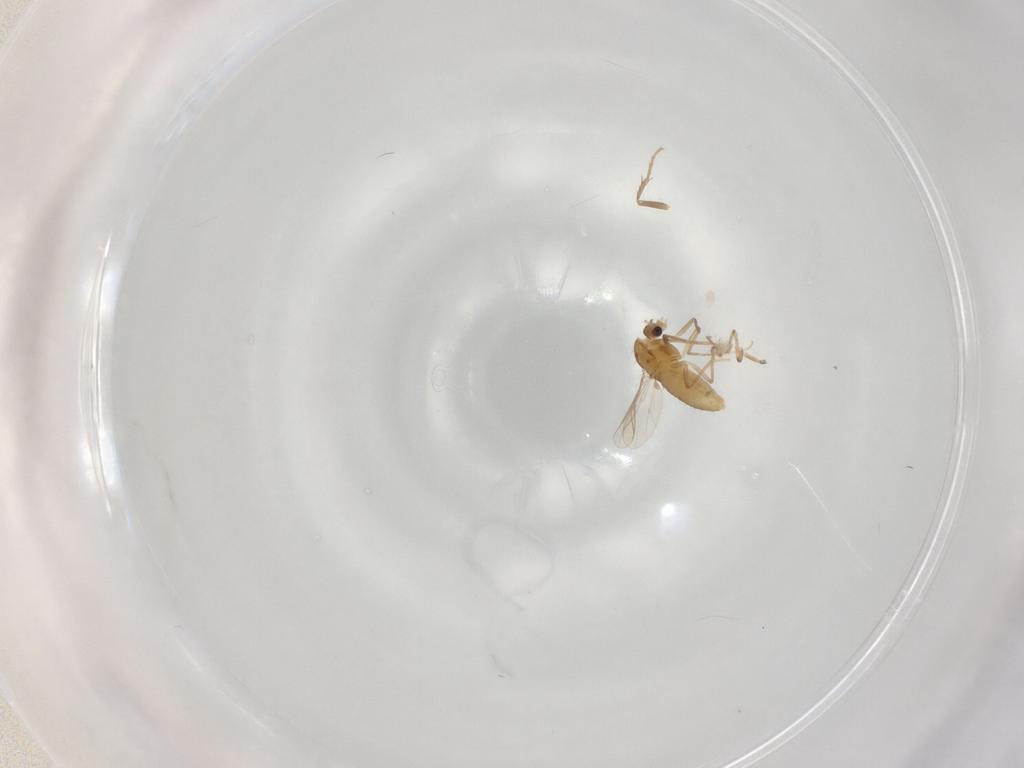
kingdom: Animalia
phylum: Arthropoda
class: Insecta
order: Diptera
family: Chironomidae
